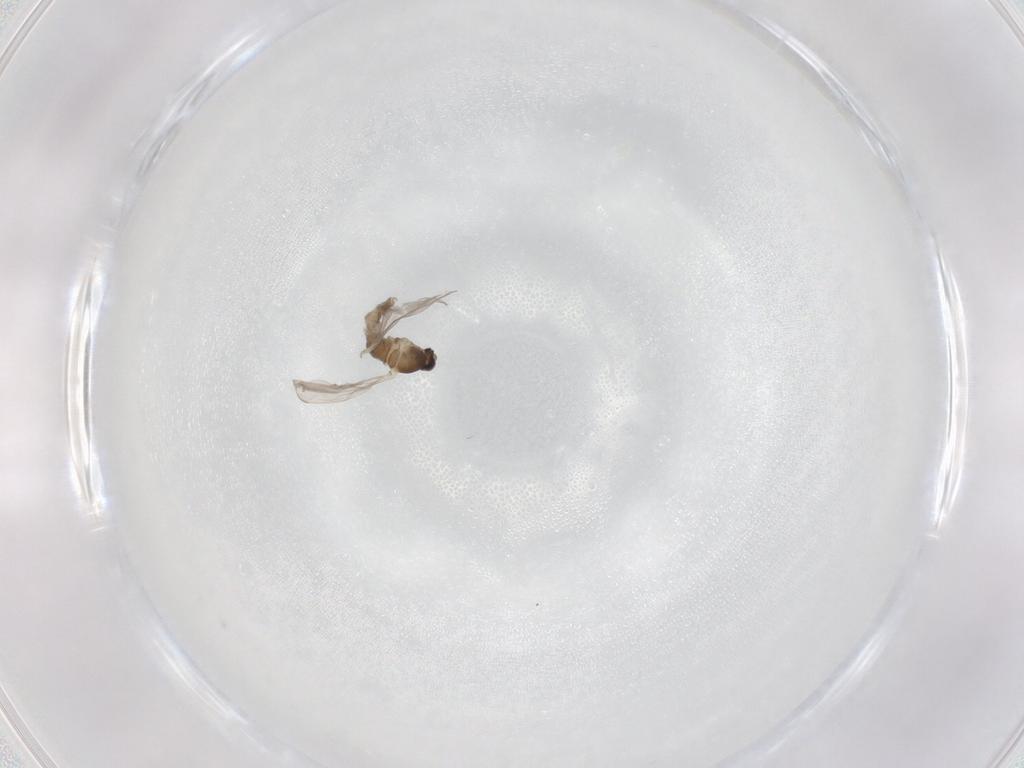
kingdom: Animalia
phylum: Arthropoda
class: Insecta
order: Diptera
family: Cecidomyiidae
